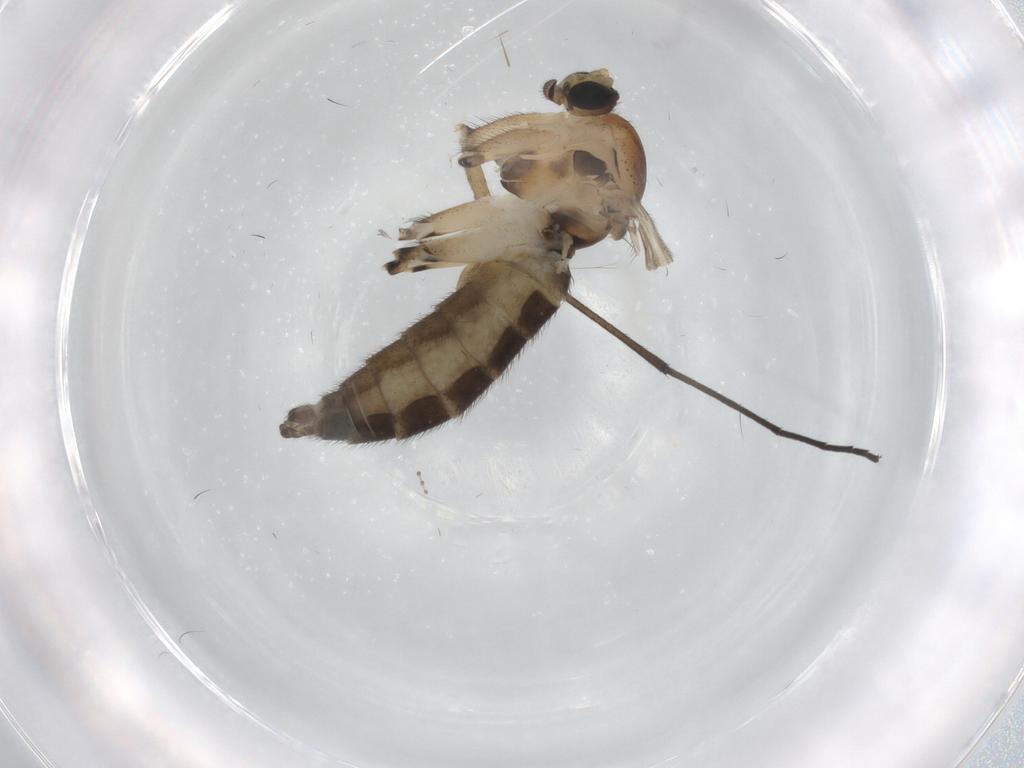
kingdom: Animalia
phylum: Arthropoda
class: Insecta
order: Diptera
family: Sciaridae
